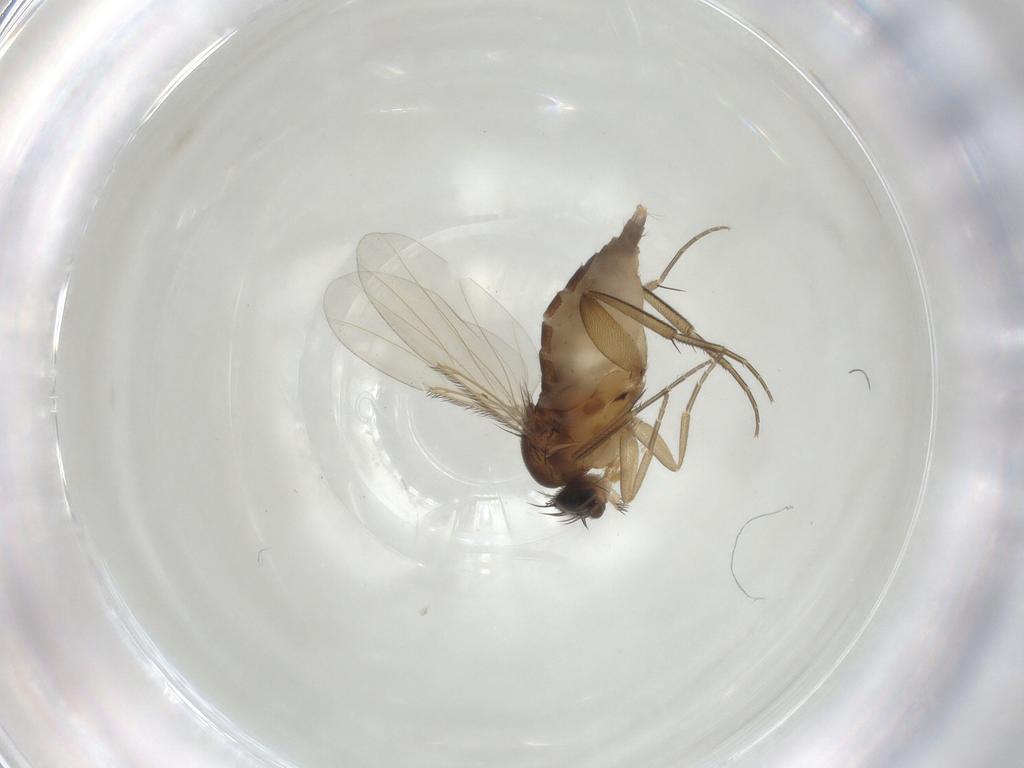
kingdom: Animalia
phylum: Arthropoda
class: Insecta
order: Diptera
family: Phoridae
